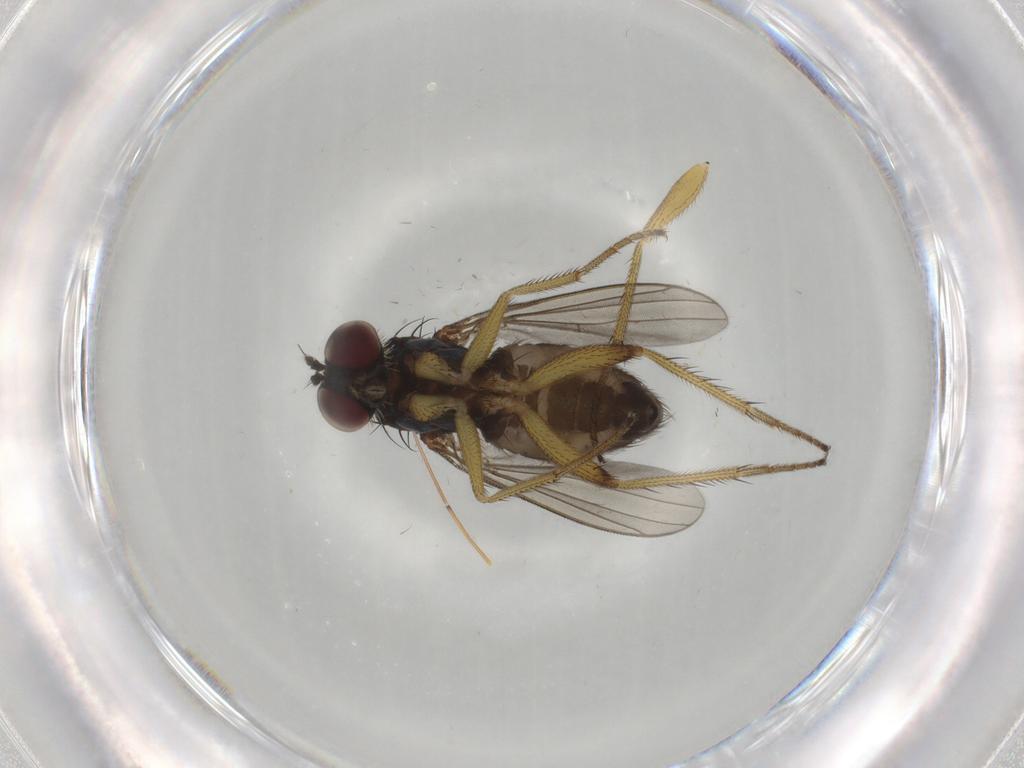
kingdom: Animalia
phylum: Arthropoda
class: Insecta
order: Diptera
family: Dolichopodidae
